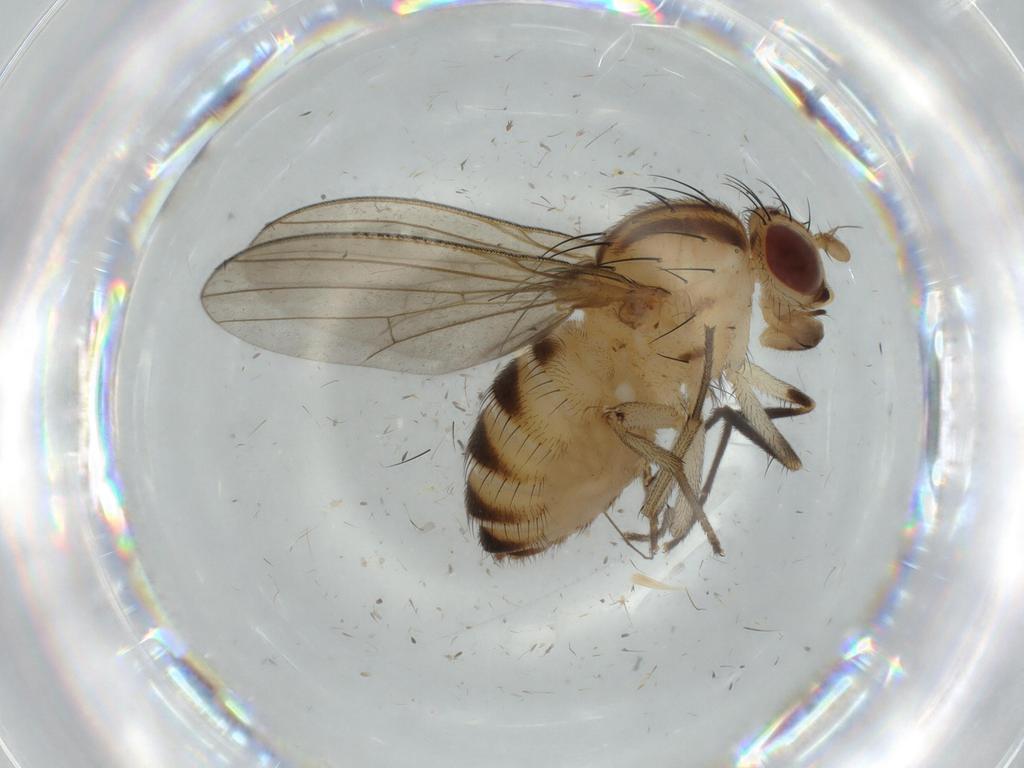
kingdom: Animalia
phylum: Arthropoda
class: Insecta
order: Diptera
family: Ceratopogonidae
